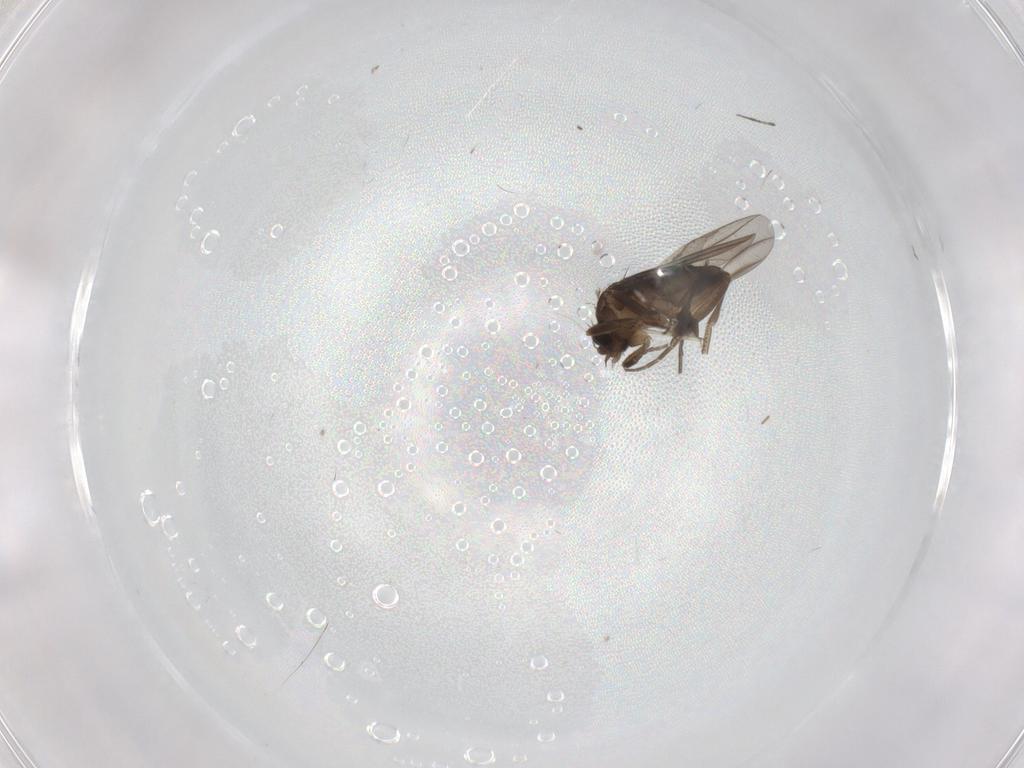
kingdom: Animalia
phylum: Arthropoda
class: Insecta
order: Diptera
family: Phoridae
